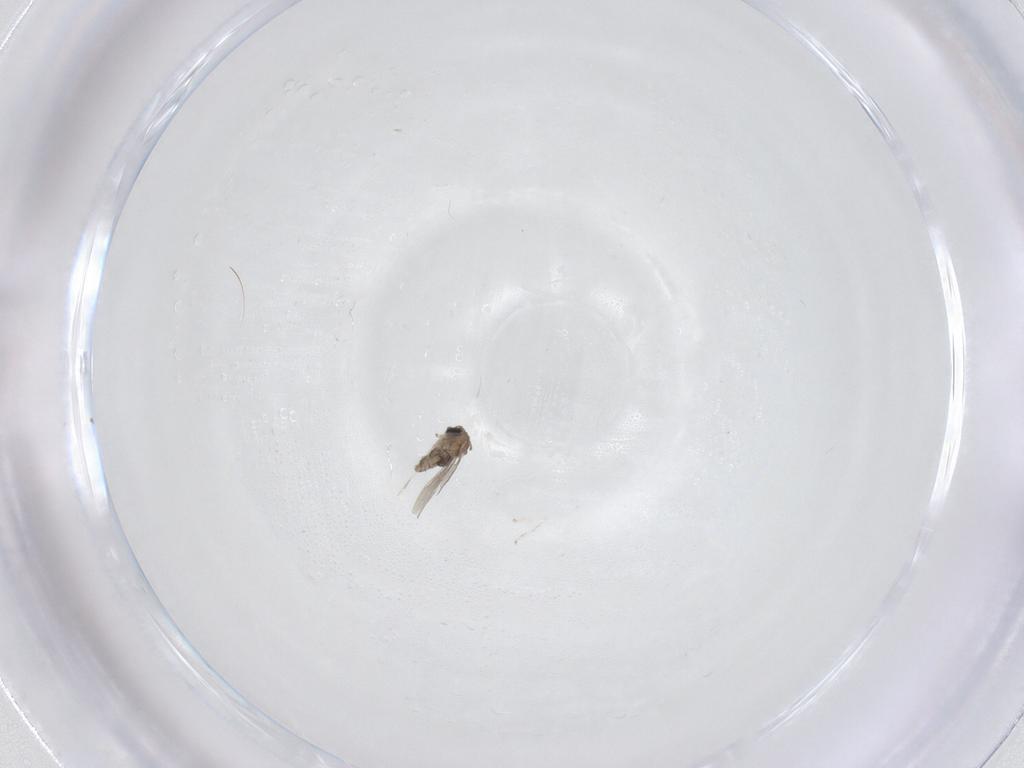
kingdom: Animalia
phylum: Arthropoda
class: Insecta
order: Diptera
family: Cecidomyiidae
